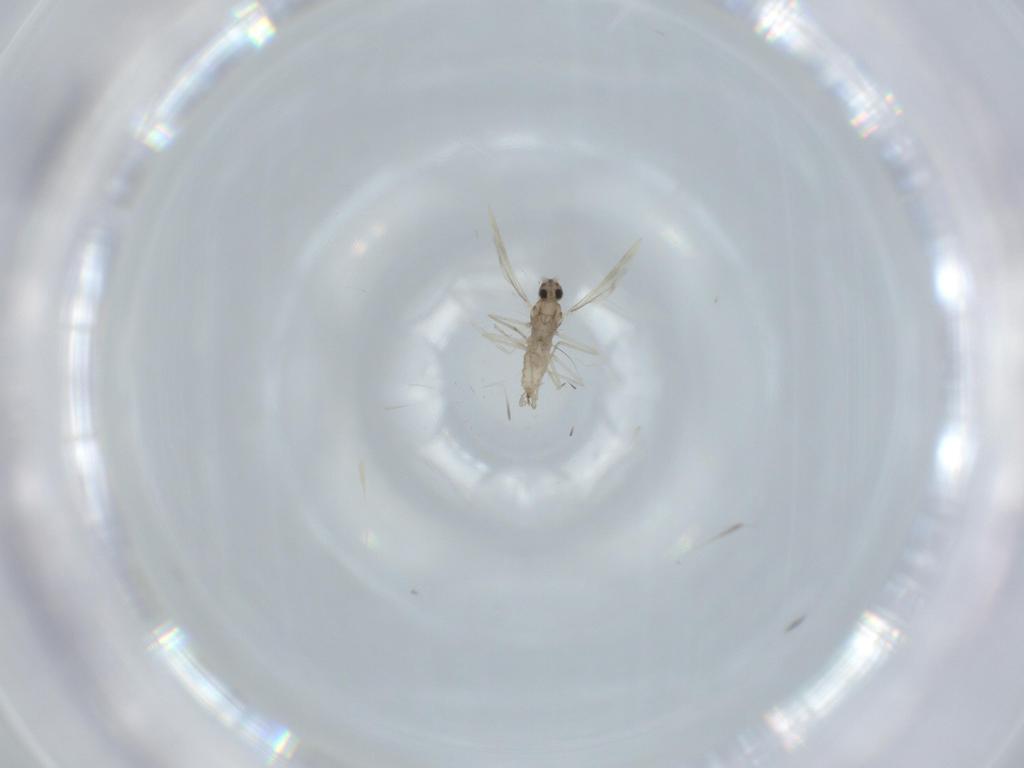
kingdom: Animalia
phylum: Arthropoda
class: Insecta
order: Diptera
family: Cecidomyiidae
